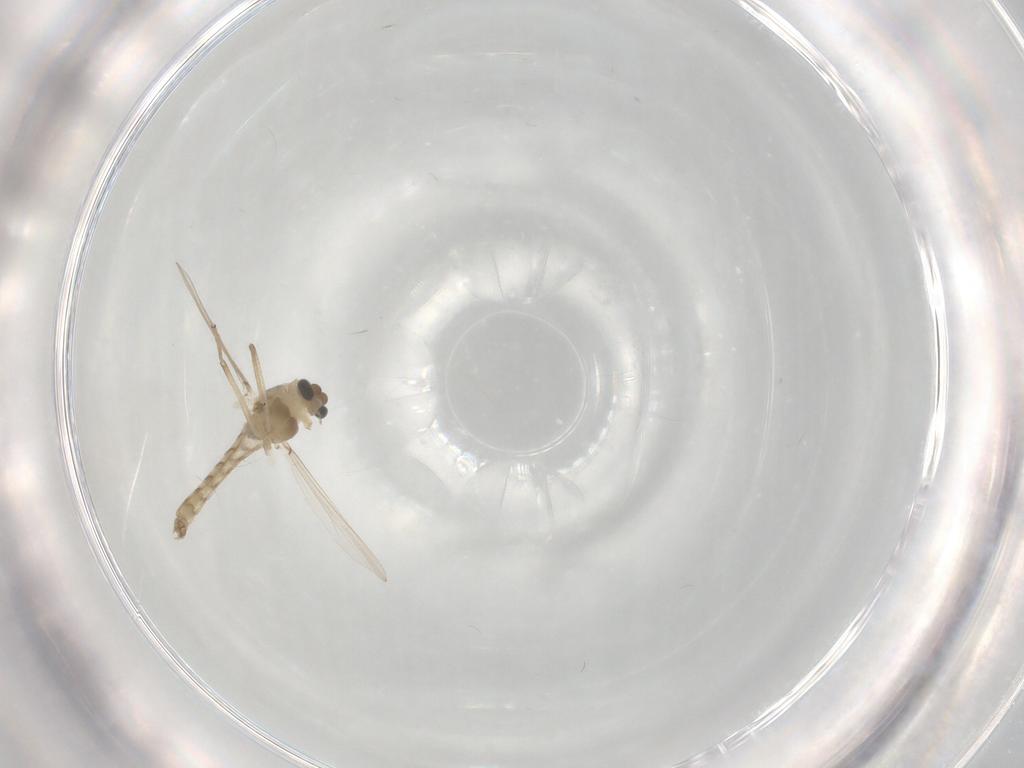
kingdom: Animalia
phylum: Arthropoda
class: Insecta
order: Diptera
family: Chironomidae
